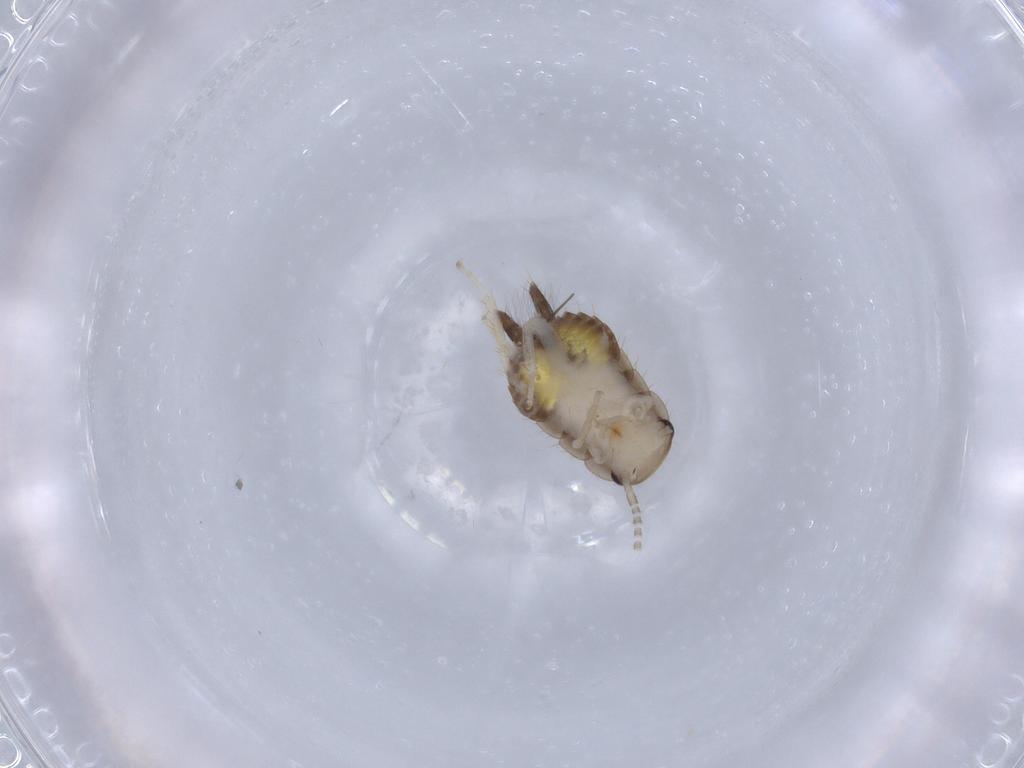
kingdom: Animalia
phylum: Arthropoda
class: Insecta
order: Blattodea
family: Ectobiidae
